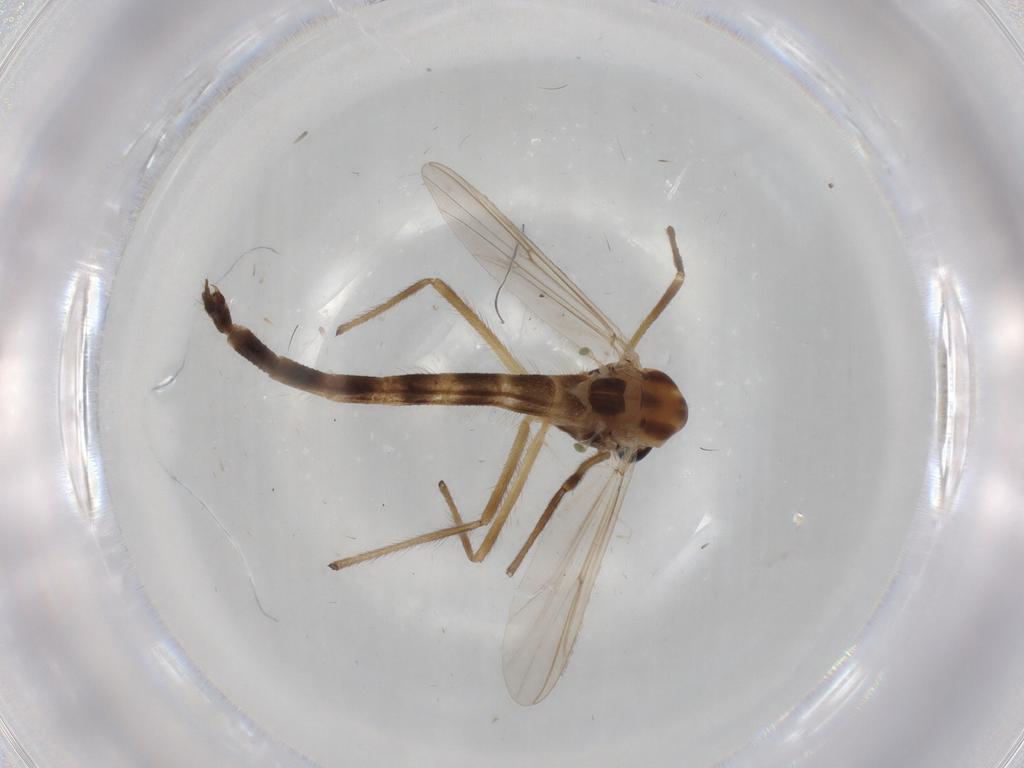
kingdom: Animalia
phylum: Arthropoda
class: Insecta
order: Diptera
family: Chironomidae
